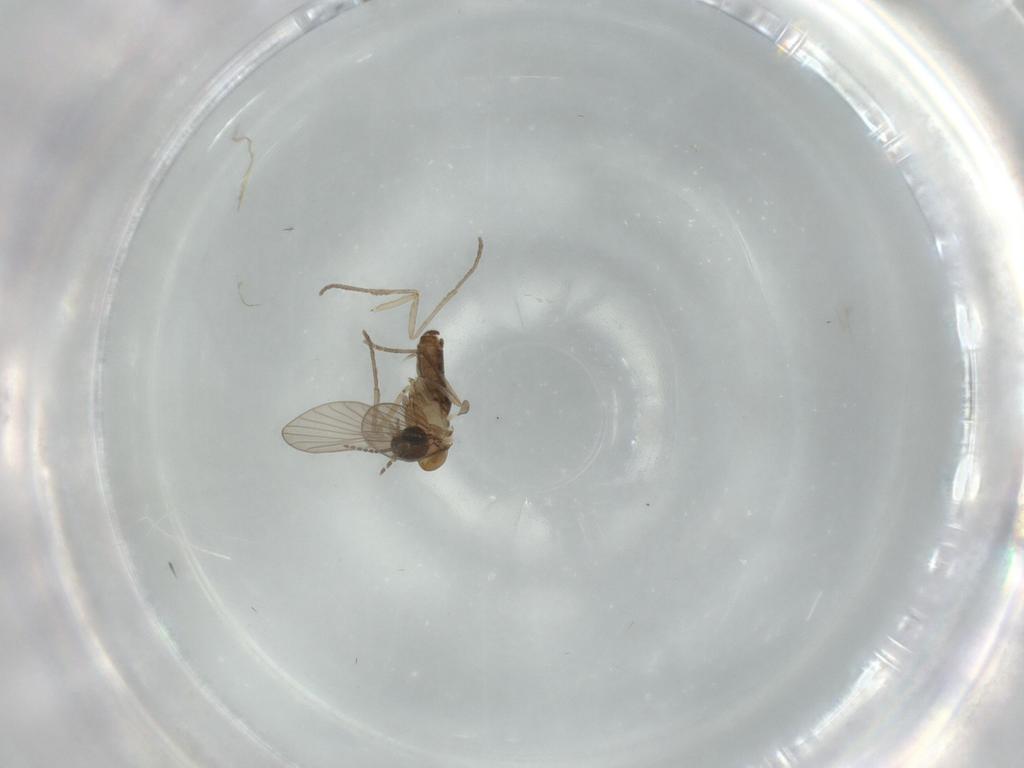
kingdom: Animalia
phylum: Arthropoda
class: Insecta
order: Diptera
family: Psychodidae
